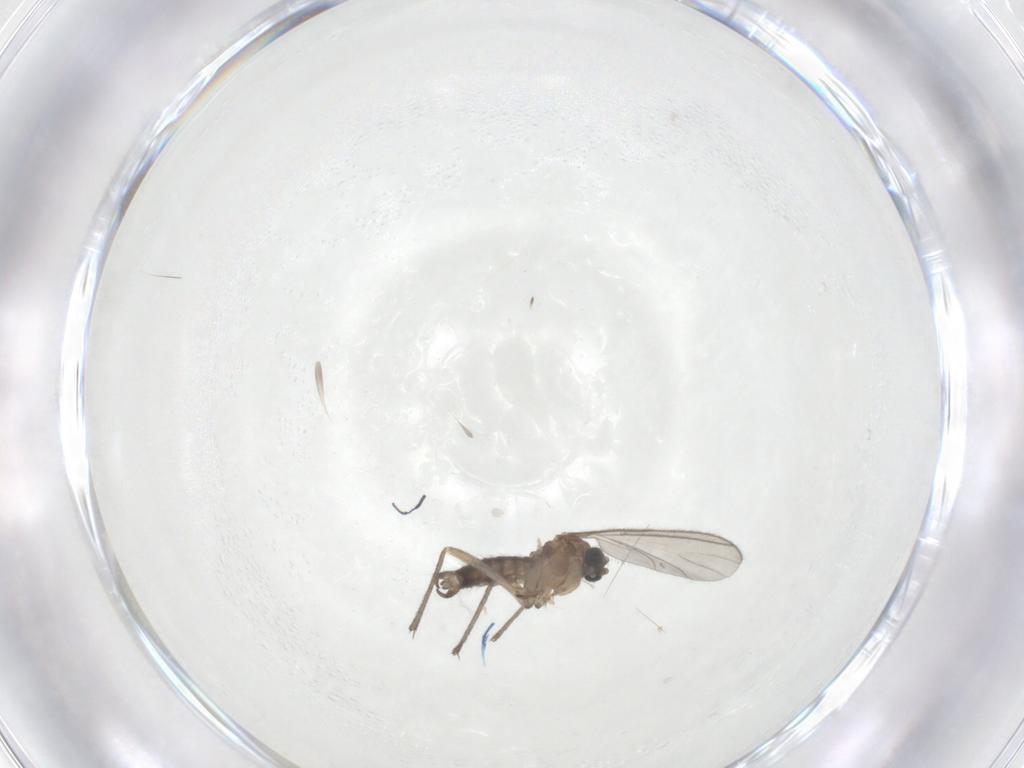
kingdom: Animalia
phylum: Arthropoda
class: Insecta
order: Diptera
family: Sciaridae
